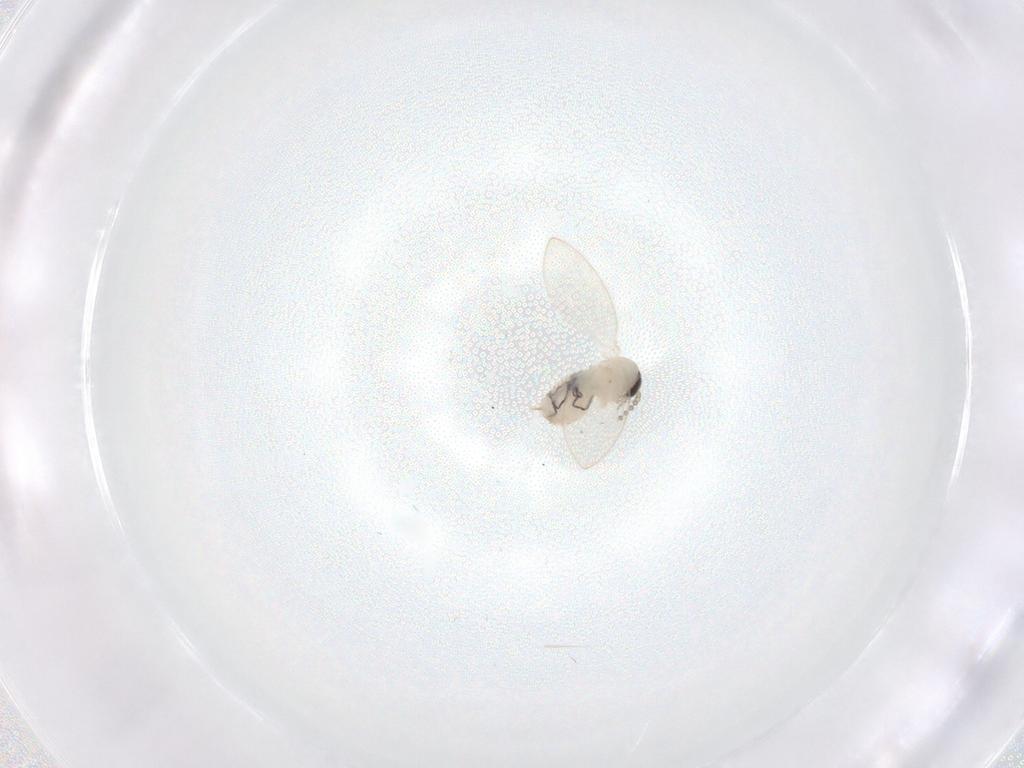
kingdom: Animalia
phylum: Arthropoda
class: Insecta
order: Diptera
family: Psychodidae
